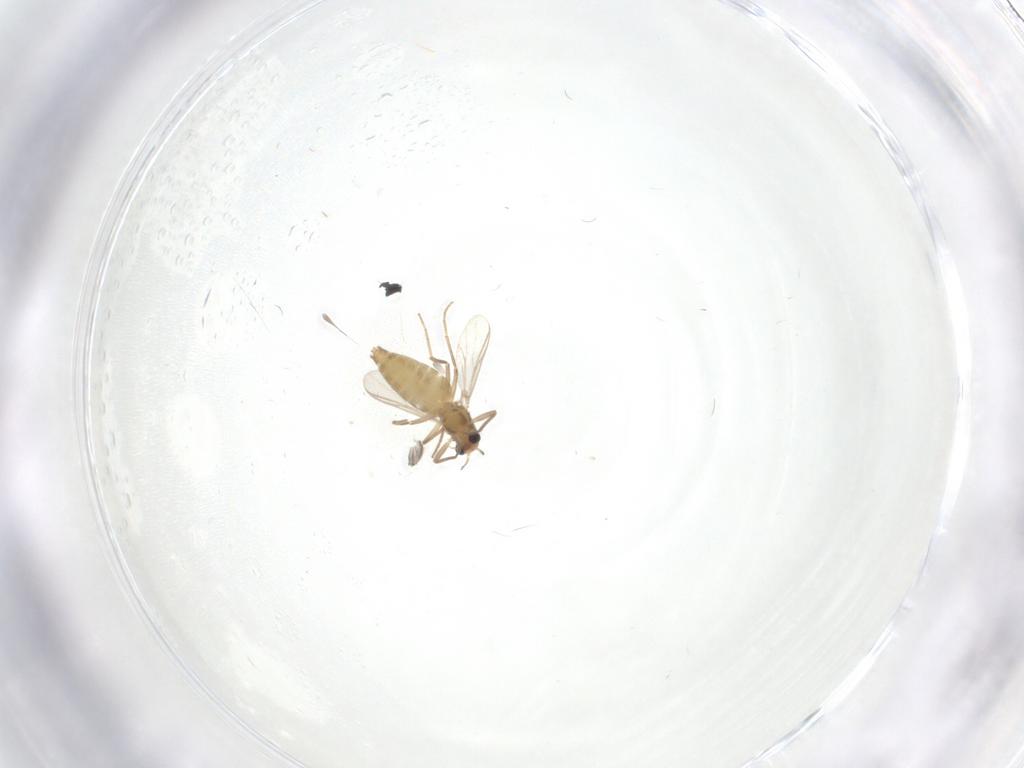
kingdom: Animalia
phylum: Arthropoda
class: Insecta
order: Diptera
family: Chironomidae
